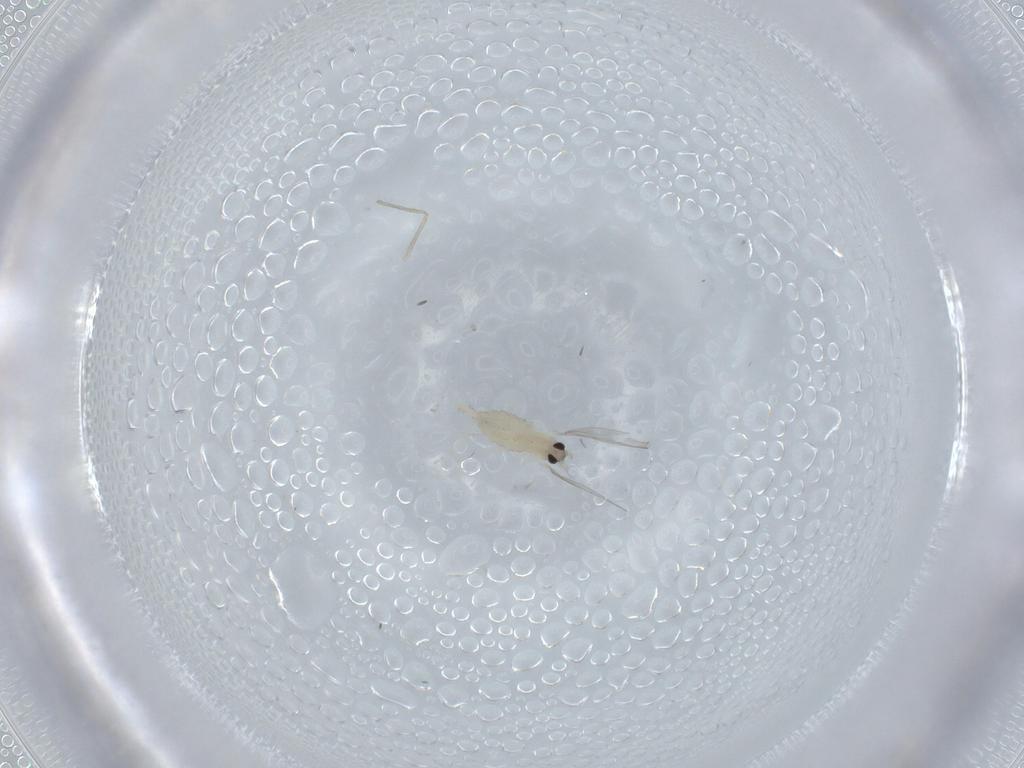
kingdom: Animalia
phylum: Arthropoda
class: Insecta
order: Diptera
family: Cecidomyiidae
